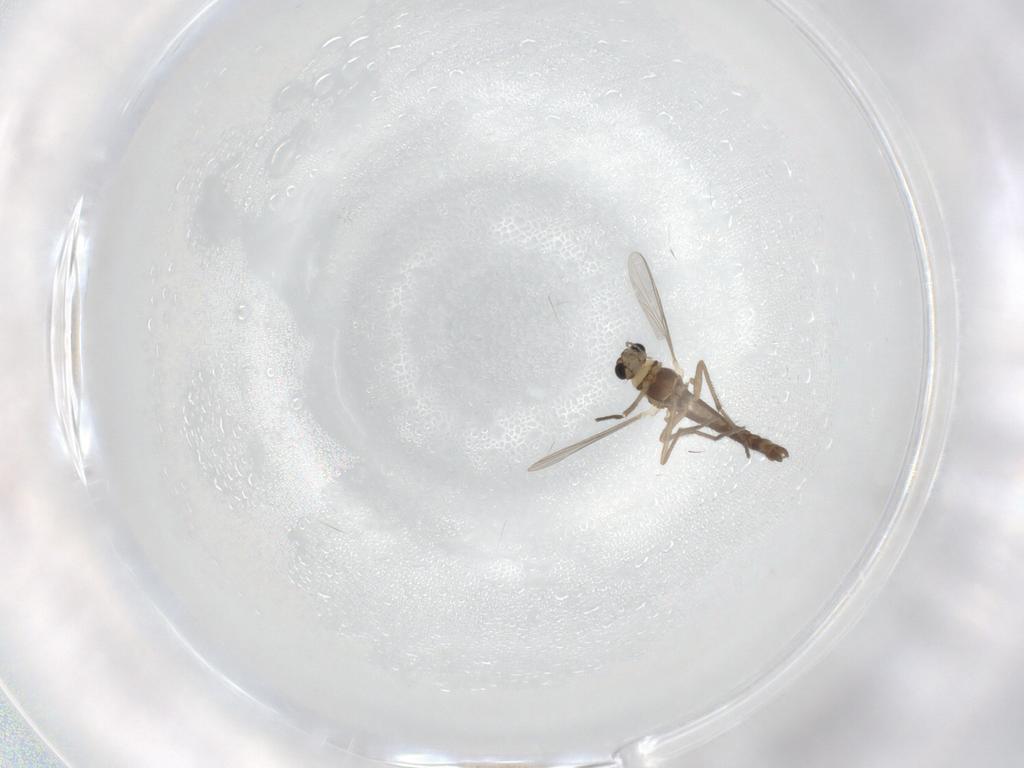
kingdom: Animalia
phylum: Arthropoda
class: Insecta
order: Diptera
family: Chironomidae
